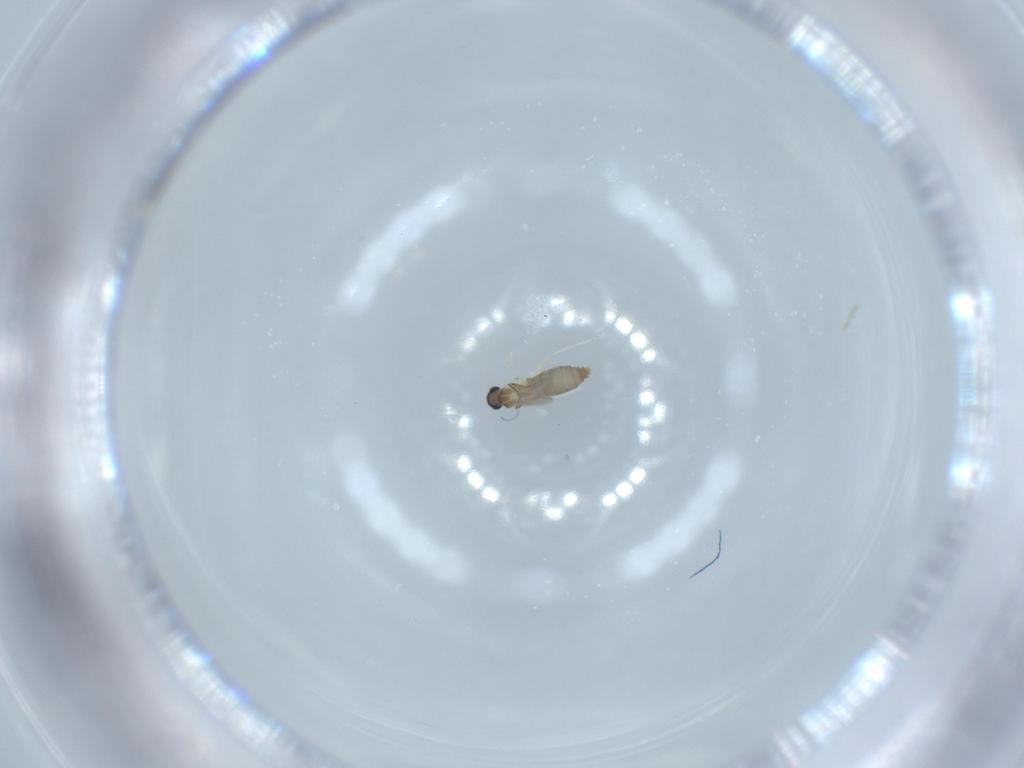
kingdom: Animalia
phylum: Arthropoda
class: Insecta
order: Diptera
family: Cecidomyiidae
